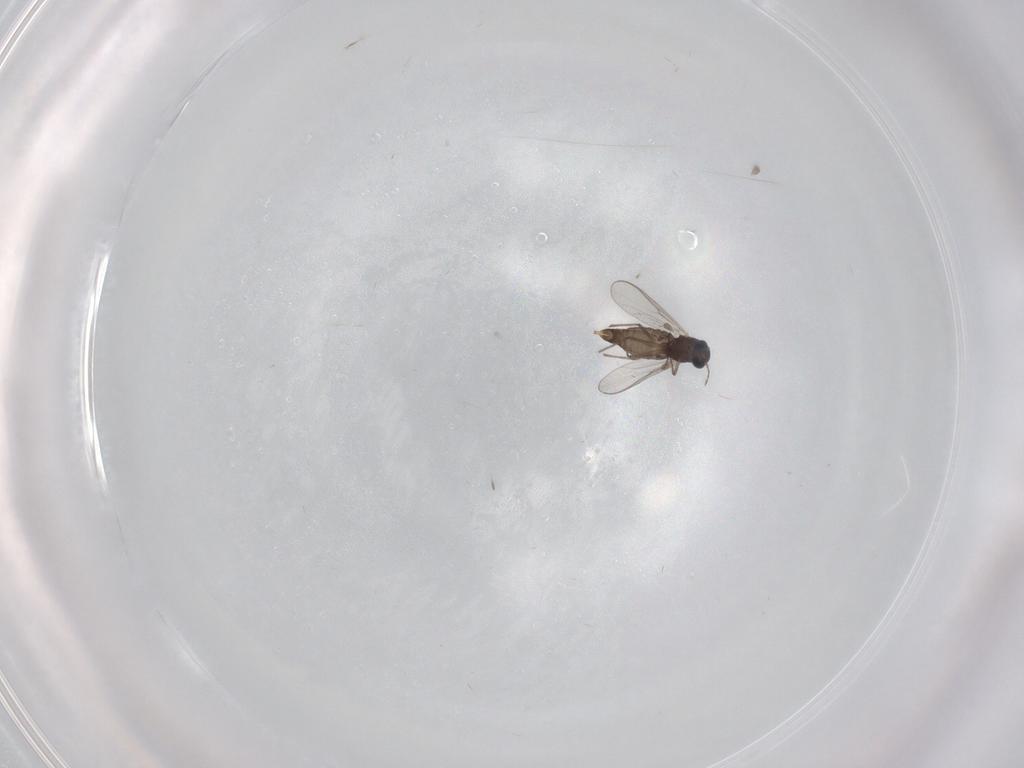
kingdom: Animalia
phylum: Arthropoda
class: Insecta
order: Diptera
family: Chironomidae
